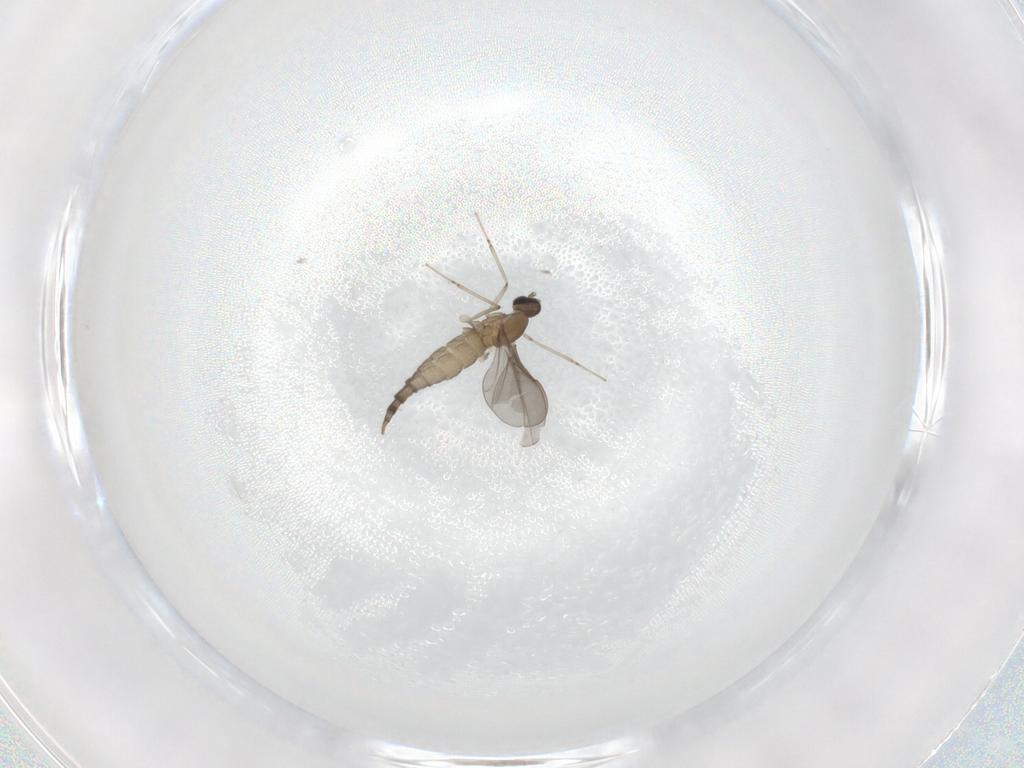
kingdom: Animalia
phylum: Arthropoda
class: Insecta
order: Diptera
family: Cecidomyiidae
